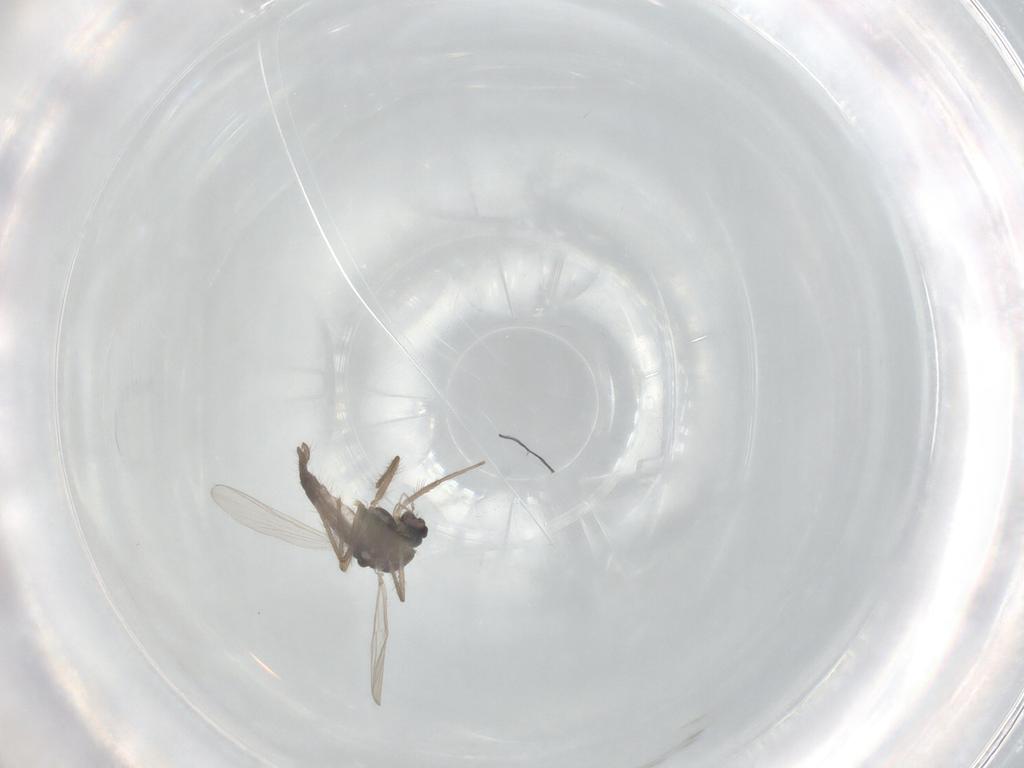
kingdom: Animalia
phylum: Arthropoda
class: Insecta
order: Diptera
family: Chironomidae
